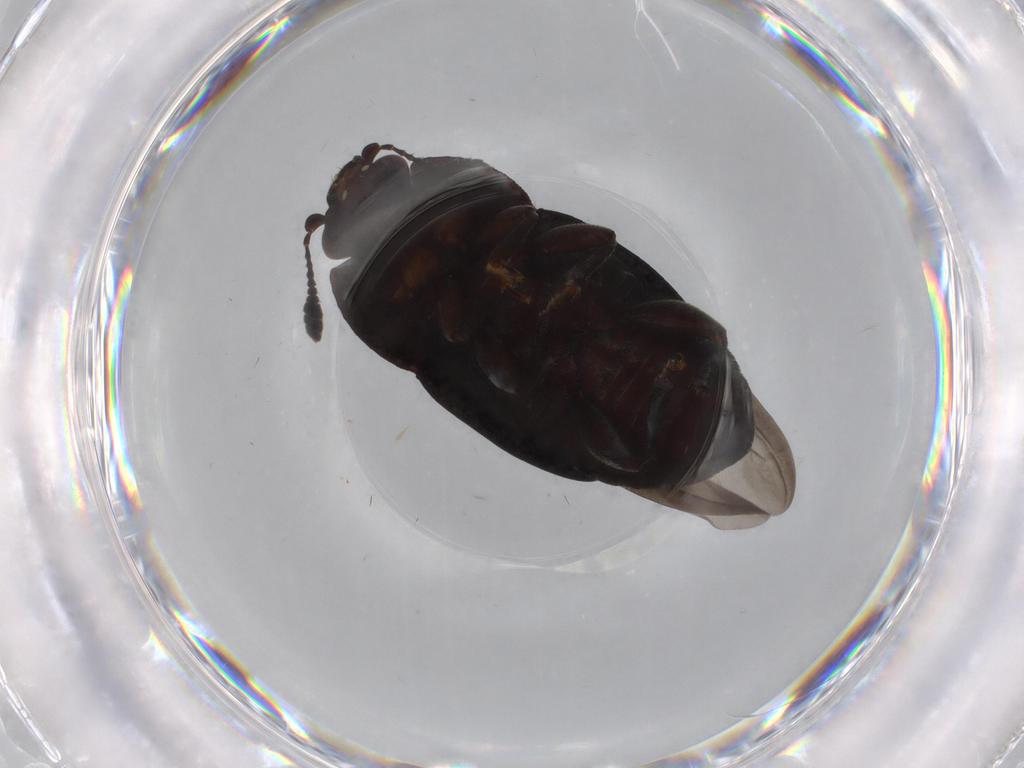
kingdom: Animalia
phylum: Arthropoda
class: Insecta
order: Coleoptera
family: Nitidulidae
